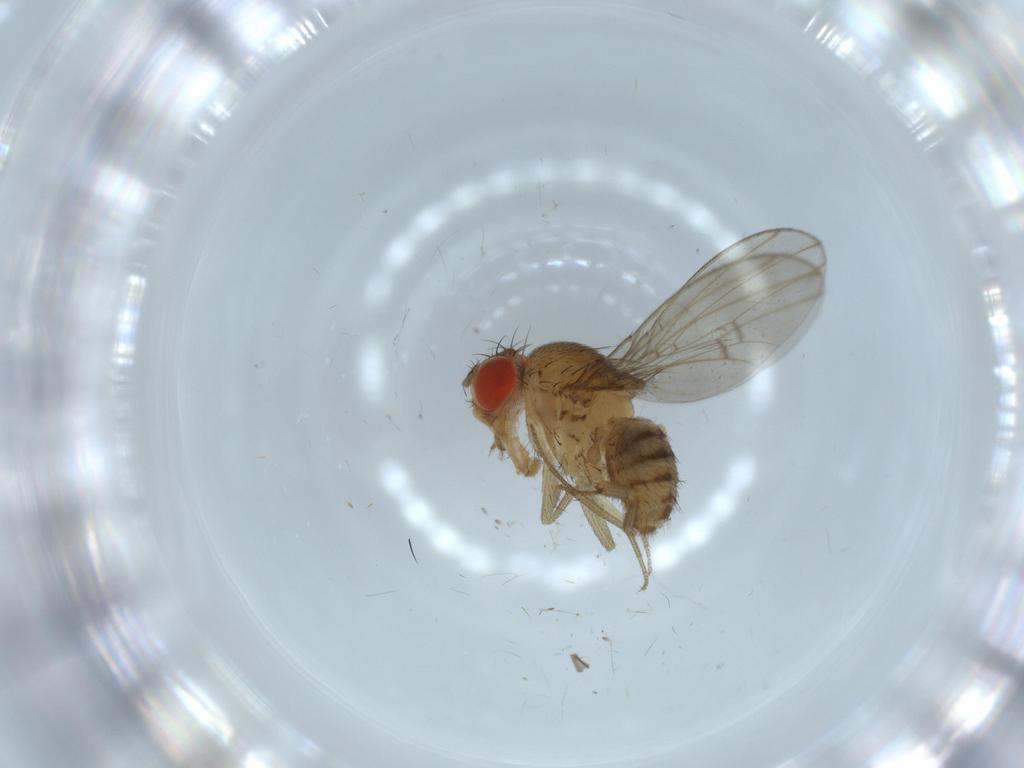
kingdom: Animalia
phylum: Arthropoda
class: Insecta
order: Diptera
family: Drosophilidae
